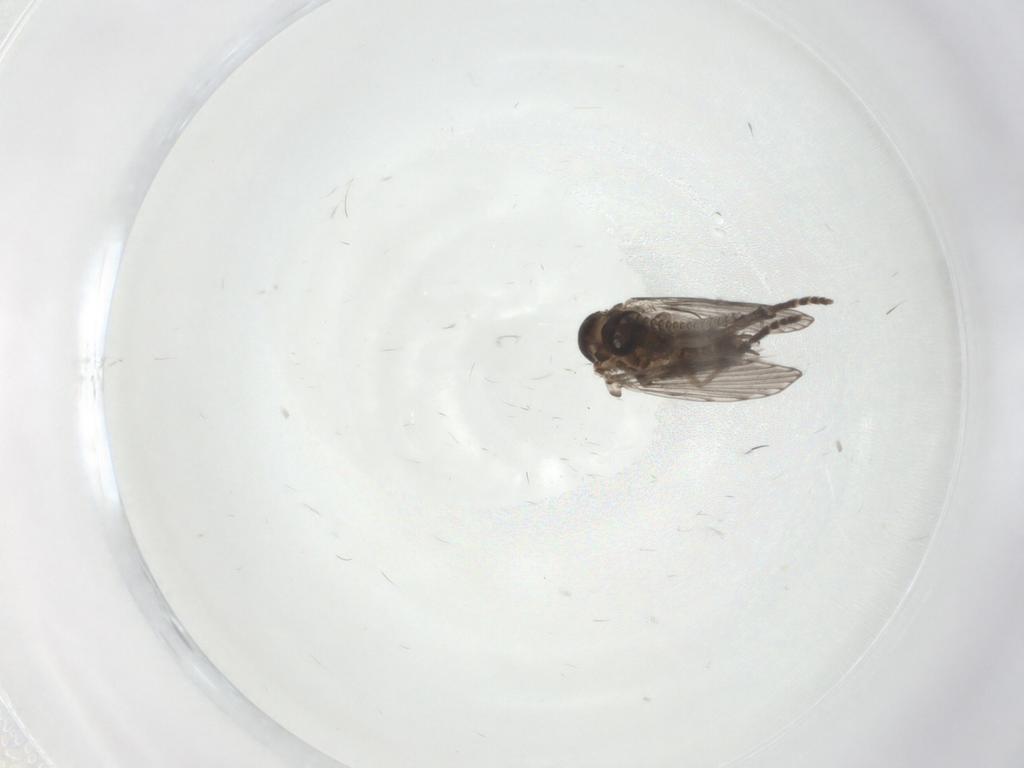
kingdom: Animalia
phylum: Arthropoda
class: Insecta
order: Diptera
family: Psychodidae
